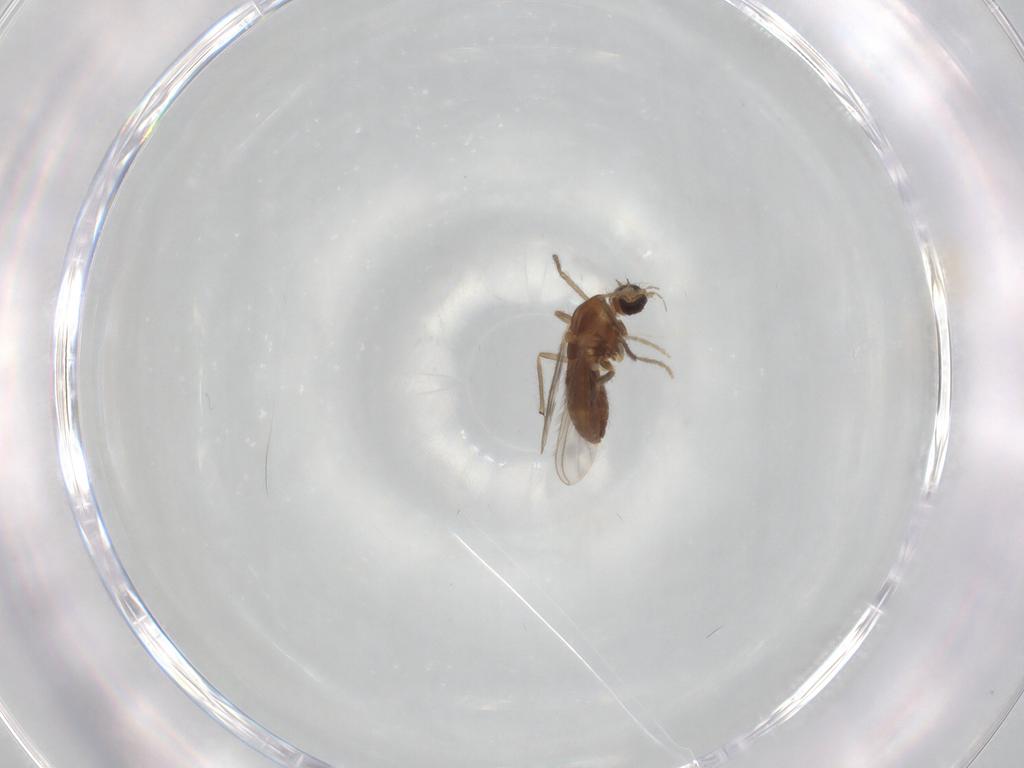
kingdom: Animalia
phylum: Arthropoda
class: Insecta
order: Diptera
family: Chironomidae
